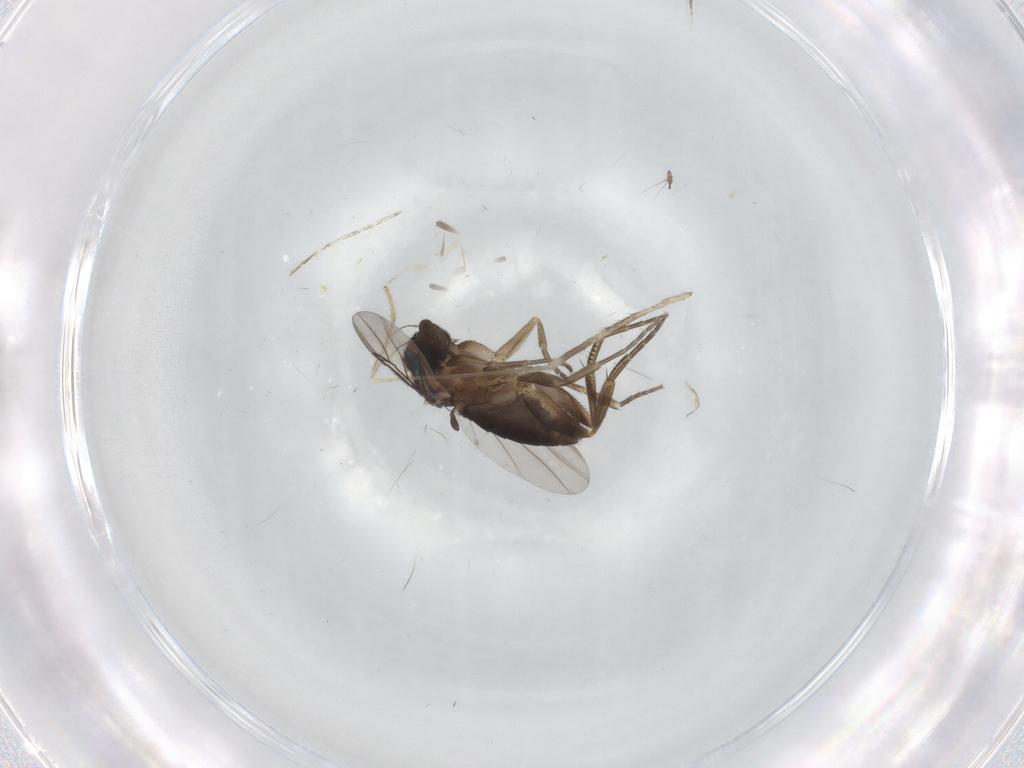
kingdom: Animalia
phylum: Arthropoda
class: Insecta
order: Diptera
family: Phoridae
